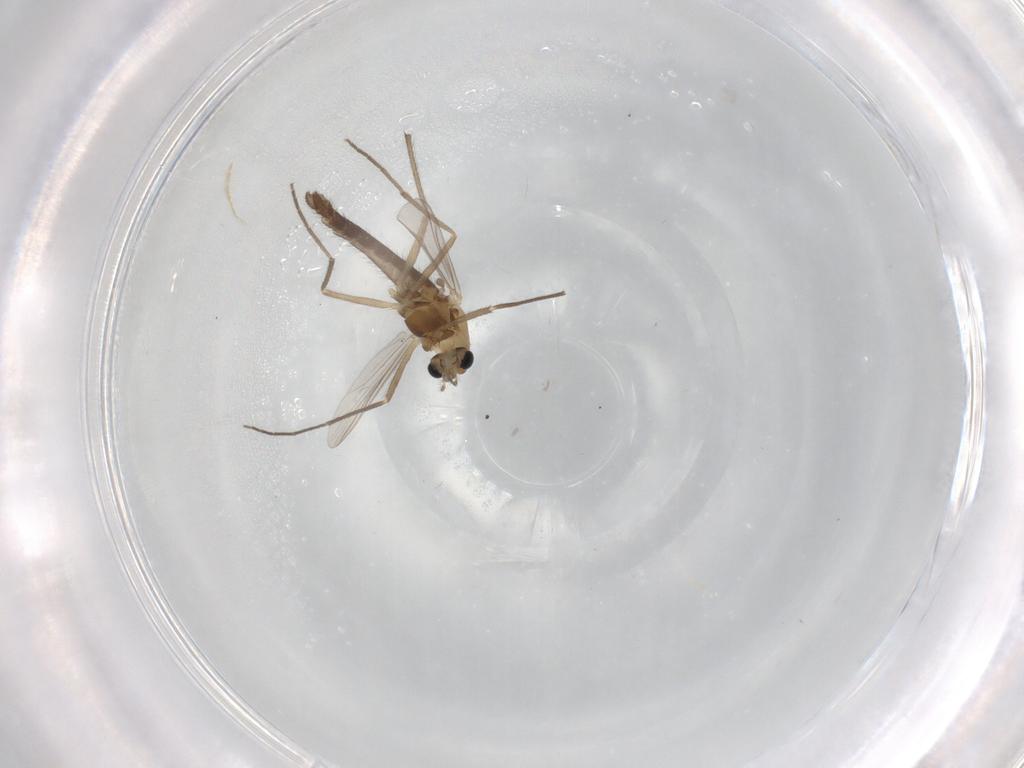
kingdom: Animalia
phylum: Arthropoda
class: Insecta
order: Diptera
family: Chironomidae
